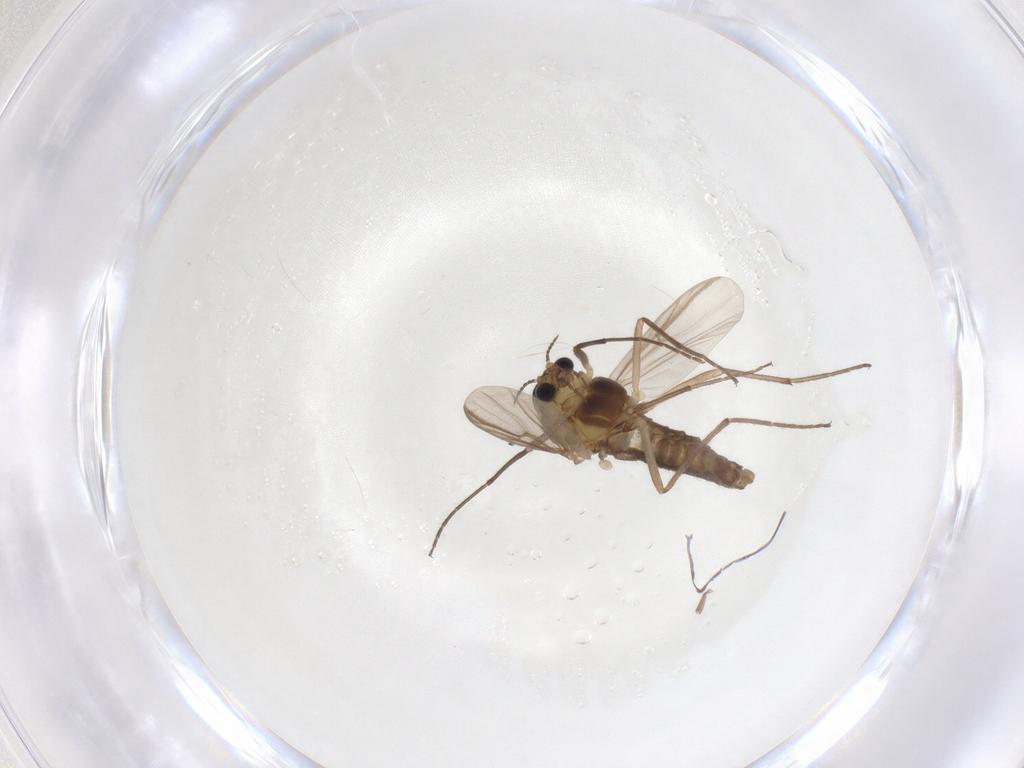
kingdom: Animalia
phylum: Arthropoda
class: Insecta
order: Diptera
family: Chironomidae
